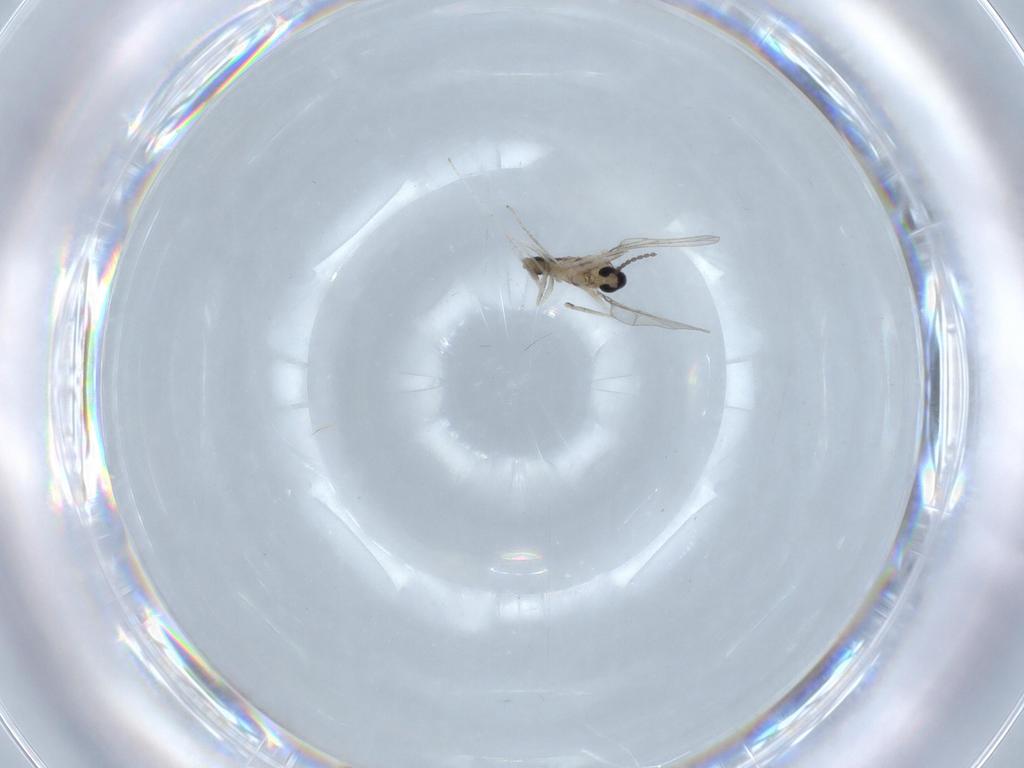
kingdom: Animalia
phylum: Arthropoda
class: Insecta
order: Diptera
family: Cecidomyiidae
